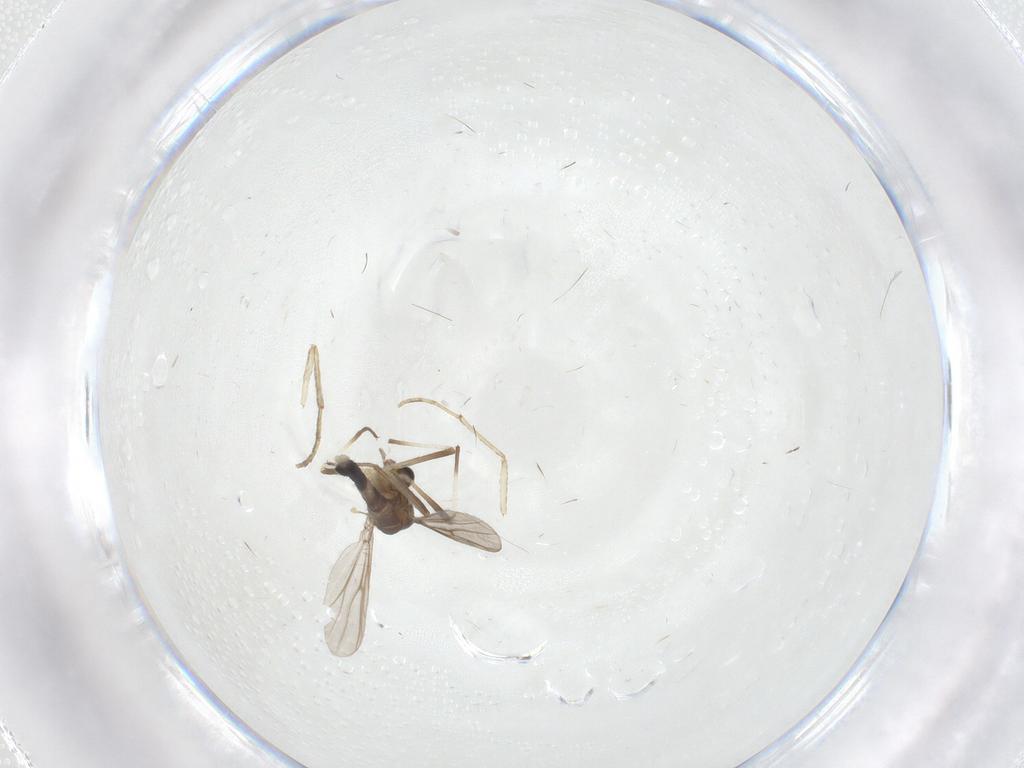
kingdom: Animalia
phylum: Arthropoda
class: Insecta
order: Diptera
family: Chironomidae
